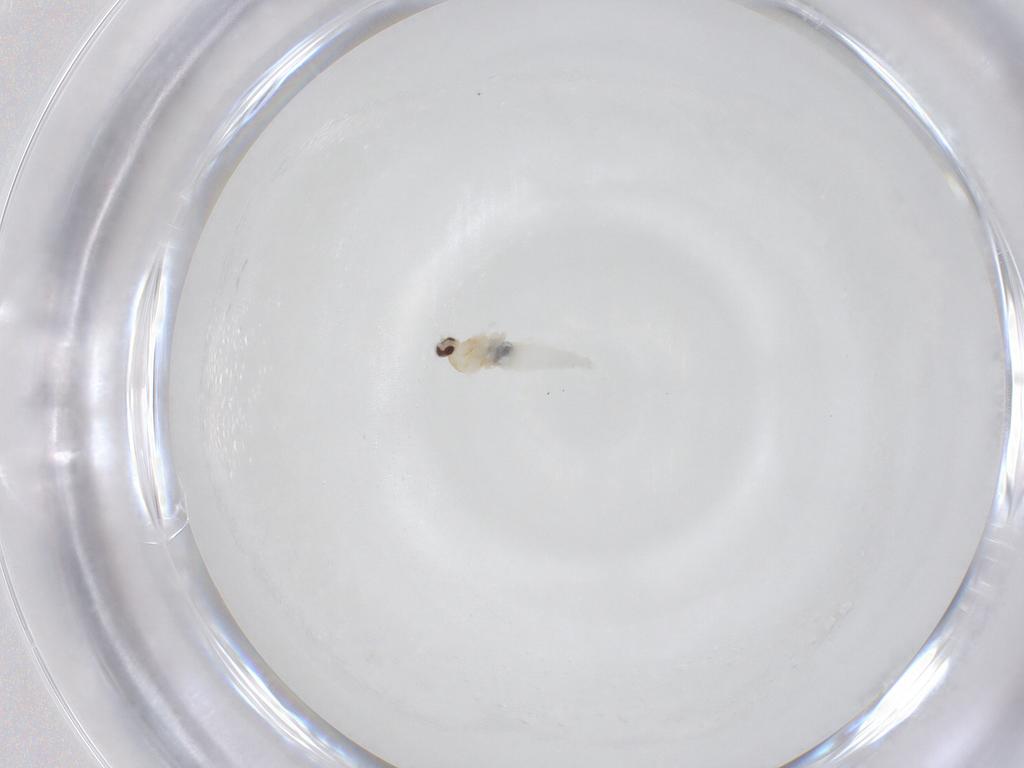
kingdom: Animalia
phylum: Arthropoda
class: Insecta
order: Diptera
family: Cecidomyiidae
